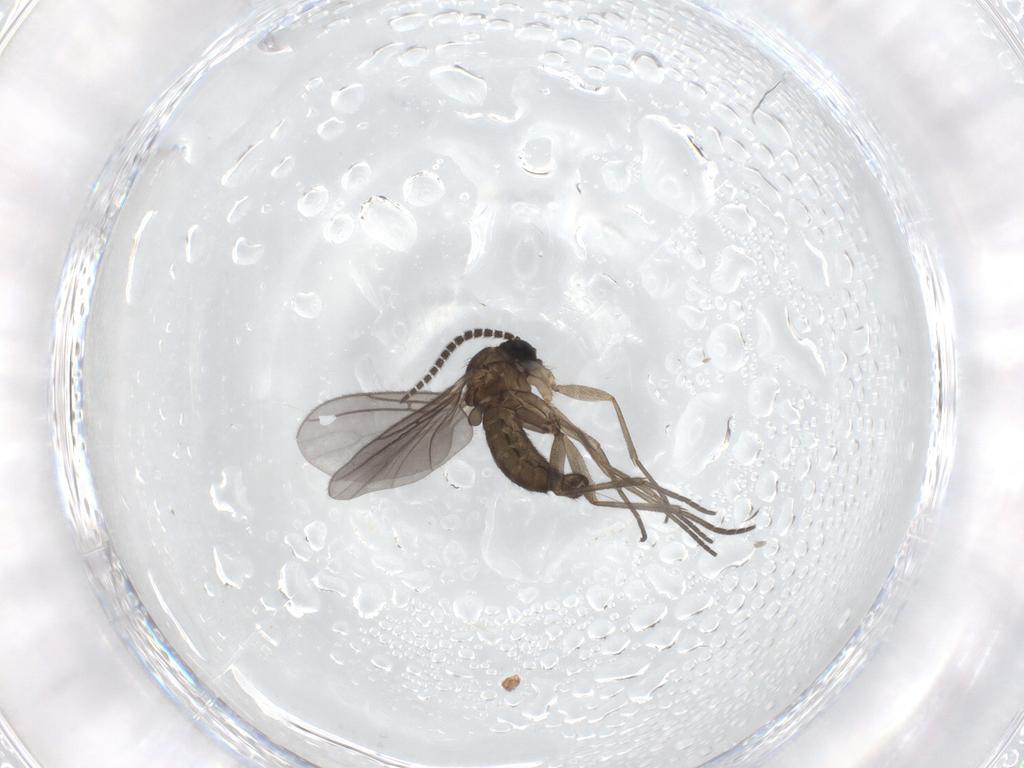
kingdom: Animalia
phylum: Arthropoda
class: Insecta
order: Diptera
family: Sciaridae
